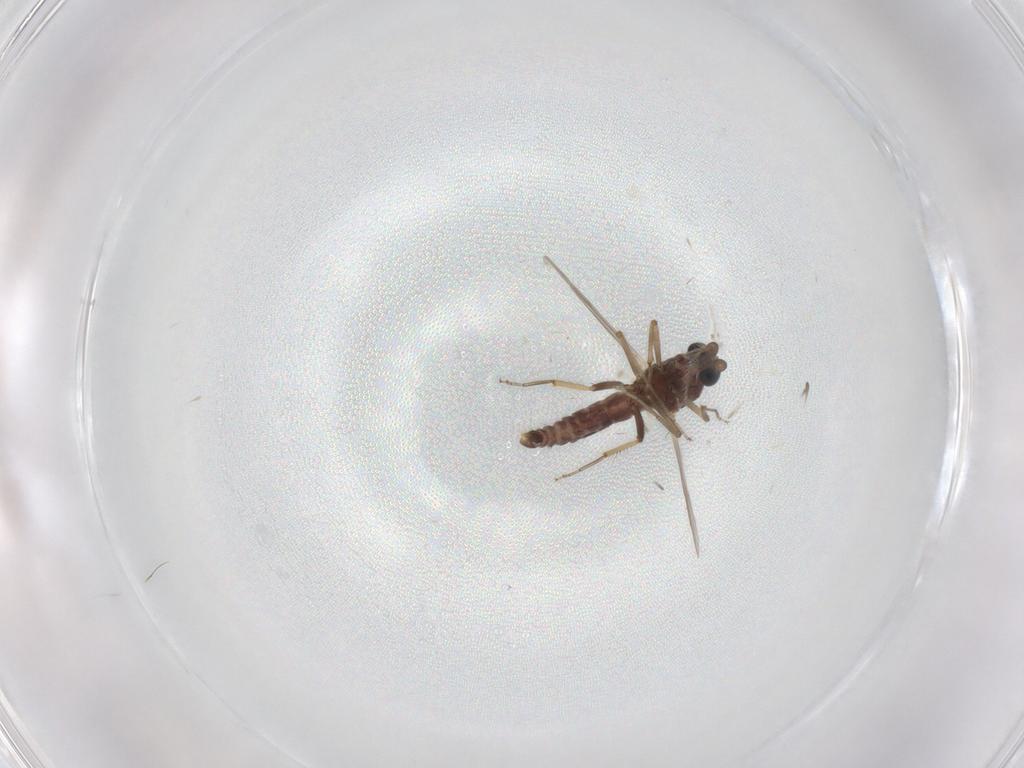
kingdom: Animalia
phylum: Arthropoda
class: Insecta
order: Diptera
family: Ceratopogonidae
